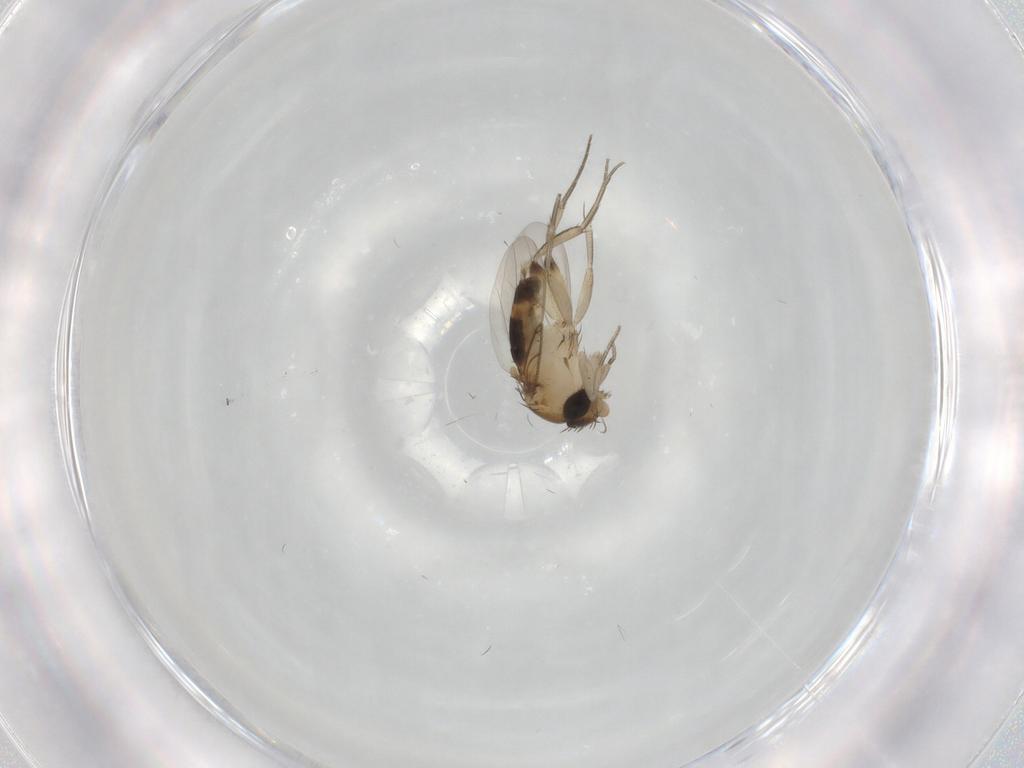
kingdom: Animalia
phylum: Arthropoda
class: Insecta
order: Diptera
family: Phoridae
